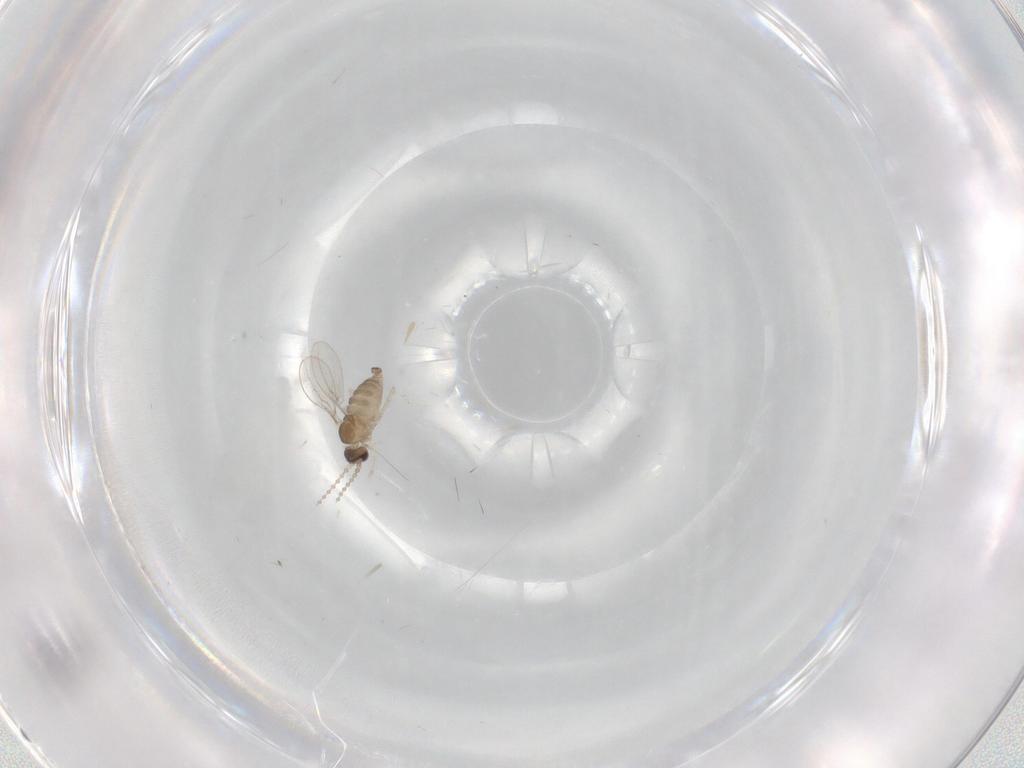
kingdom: Animalia
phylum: Arthropoda
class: Insecta
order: Diptera
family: Cecidomyiidae
